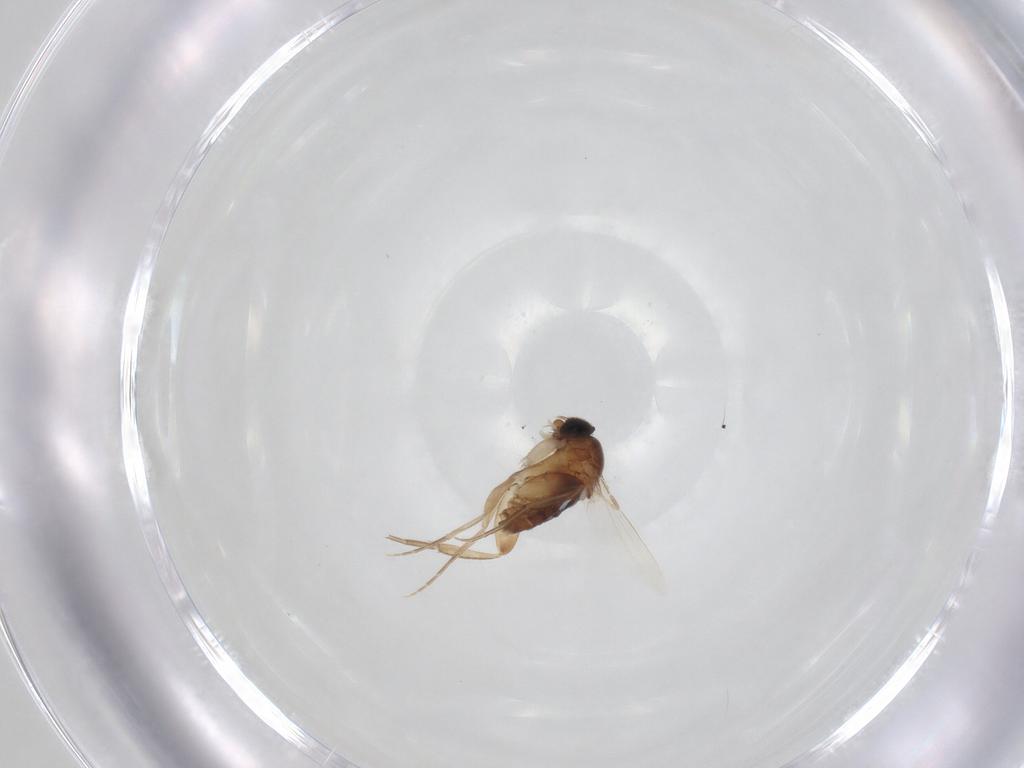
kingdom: Animalia
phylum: Arthropoda
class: Insecta
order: Diptera
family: Phoridae
